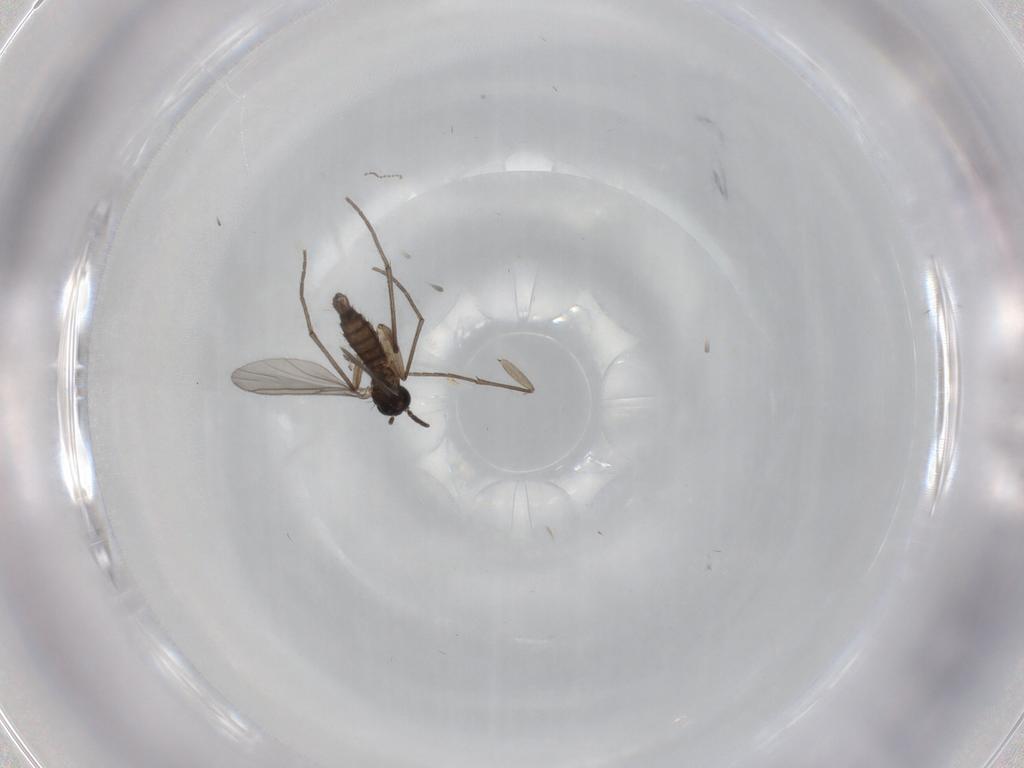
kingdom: Animalia
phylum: Arthropoda
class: Insecta
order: Diptera
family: Sciaridae
